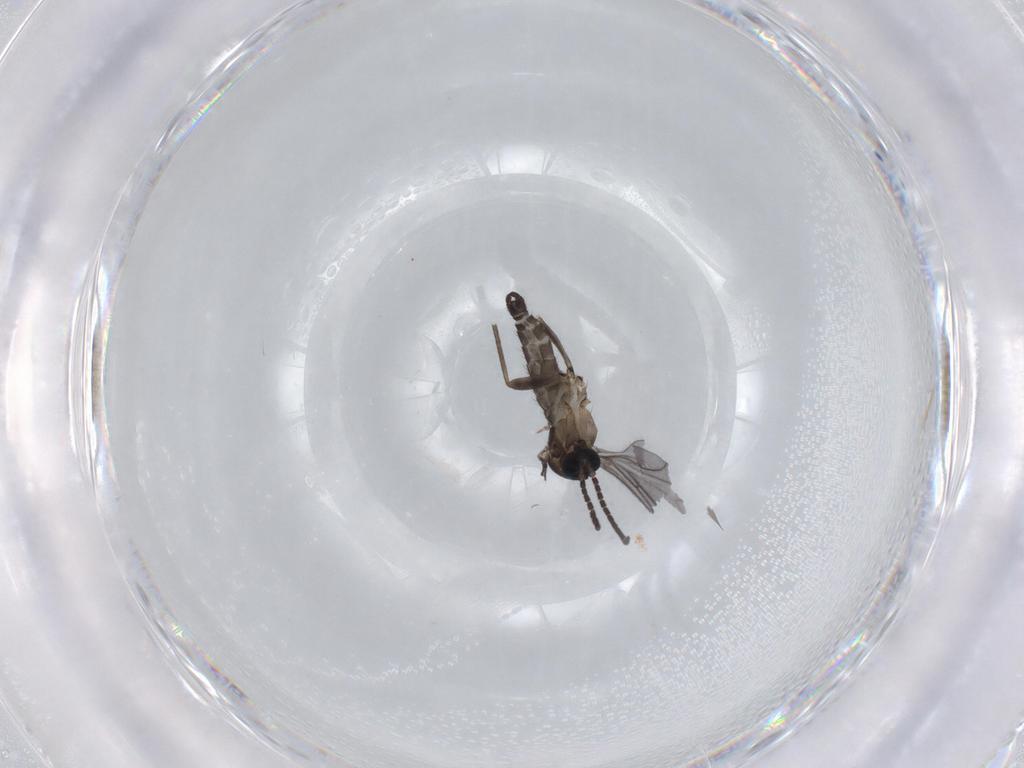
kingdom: Animalia
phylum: Arthropoda
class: Insecta
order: Diptera
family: Sciaridae
